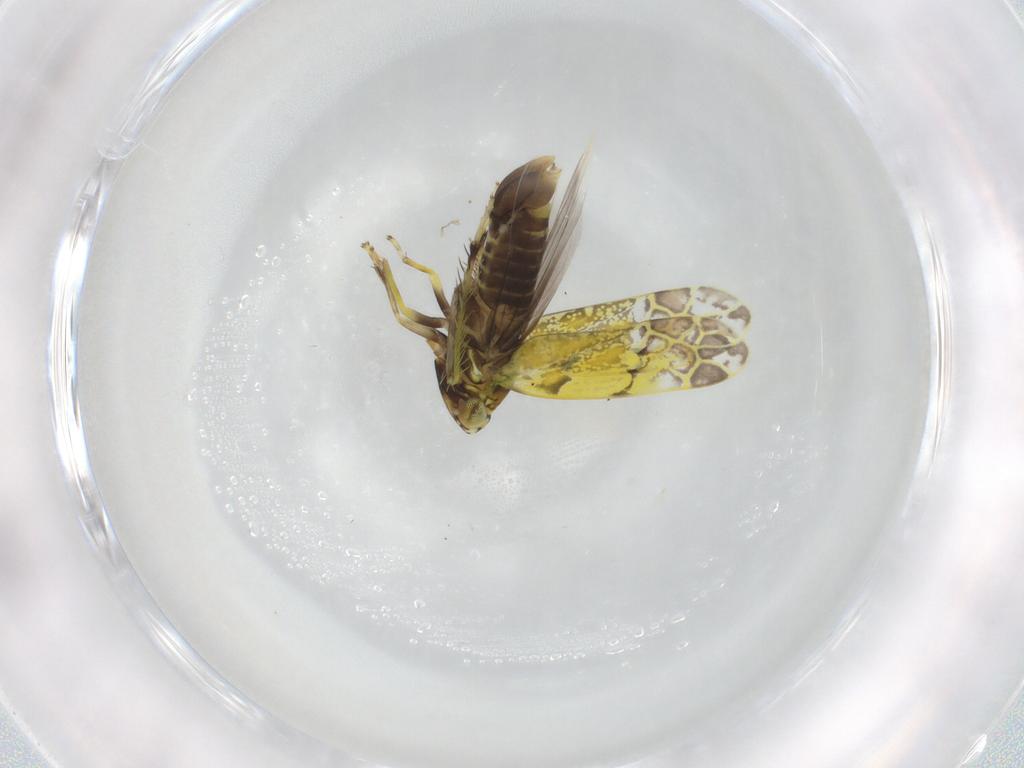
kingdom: Animalia
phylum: Arthropoda
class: Insecta
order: Hemiptera
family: Cicadellidae
